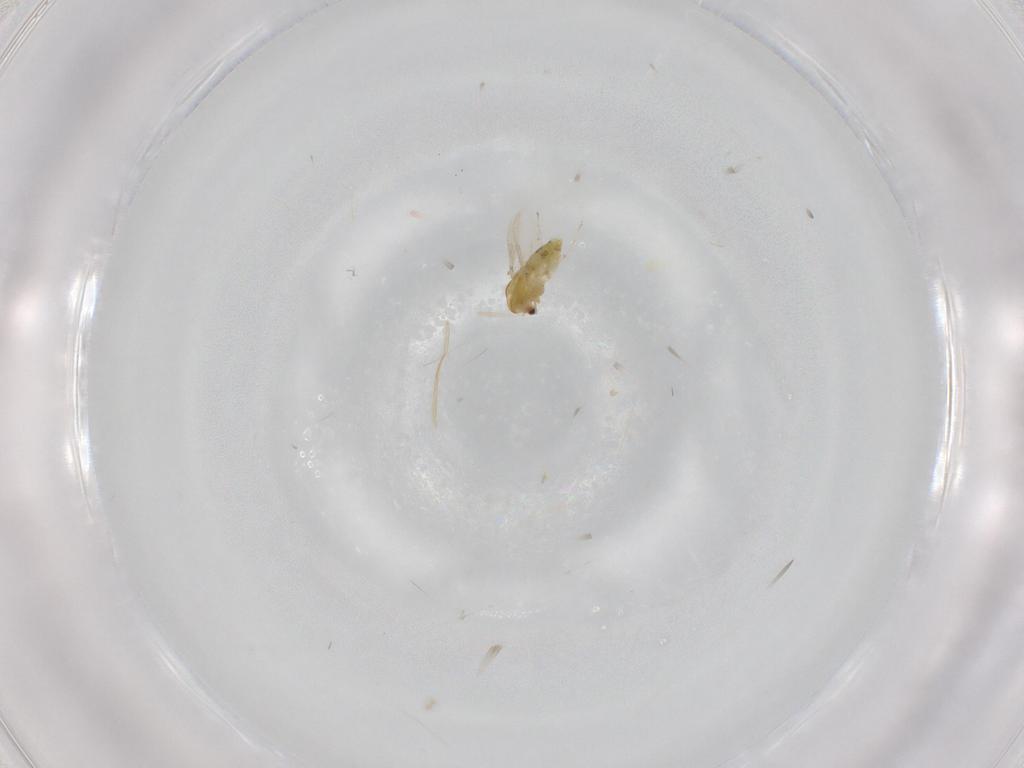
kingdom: Animalia
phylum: Arthropoda
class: Insecta
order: Diptera
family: Chironomidae
